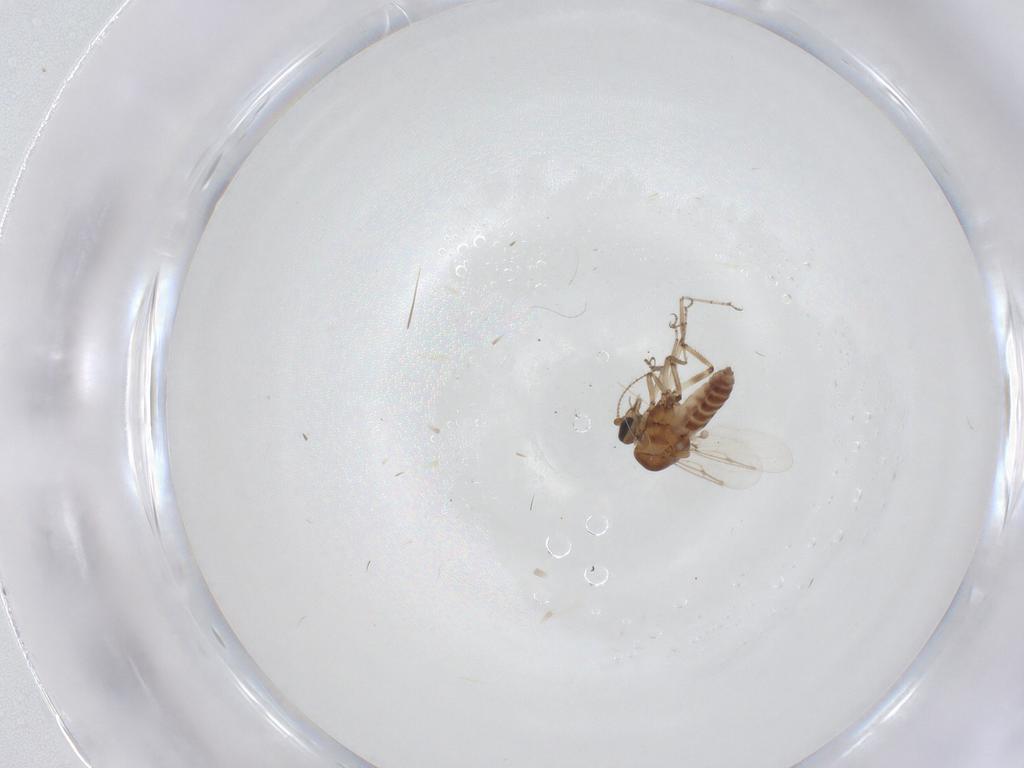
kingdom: Animalia
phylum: Arthropoda
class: Insecta
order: Diptera
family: Ceratopogonidae
